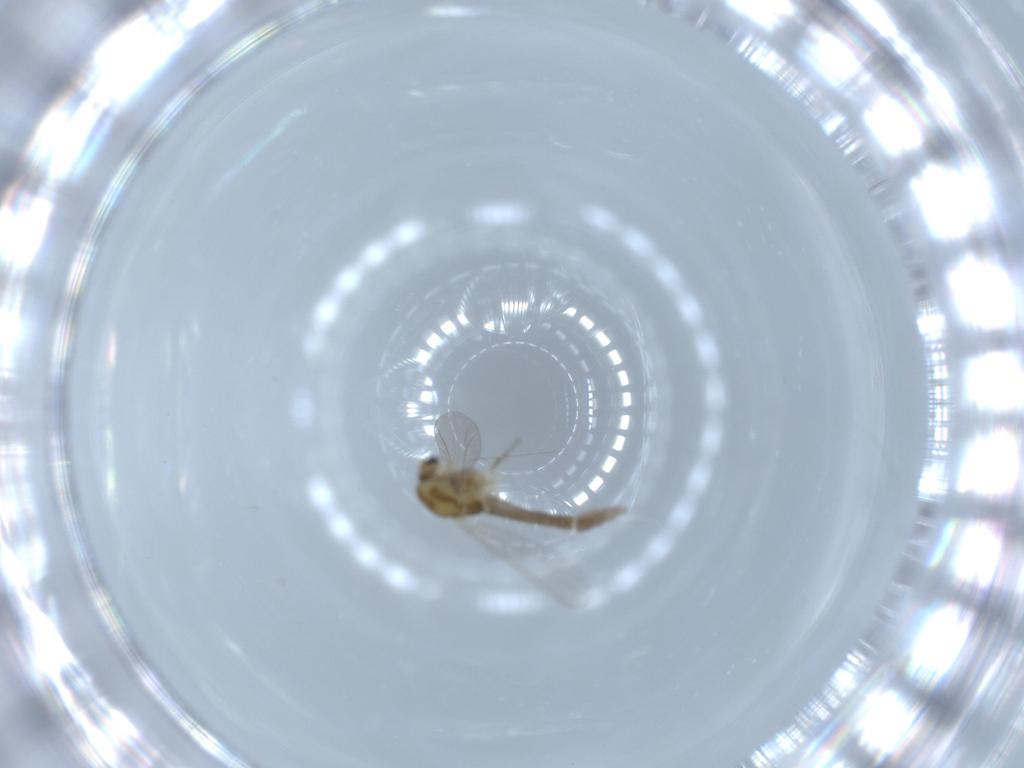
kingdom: Animalia
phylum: Arthropoda
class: Insecta
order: Diptera
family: Chironomidae
